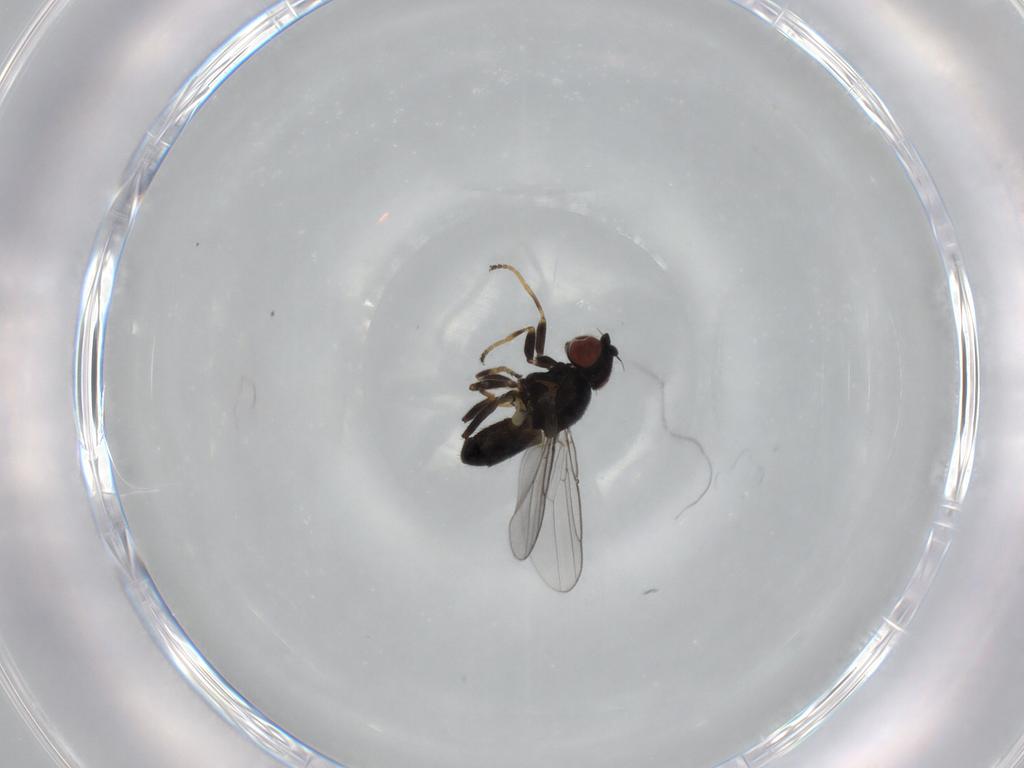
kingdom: Animalia
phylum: Arthropoda
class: Insecta
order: Diptera
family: Chloropidae
